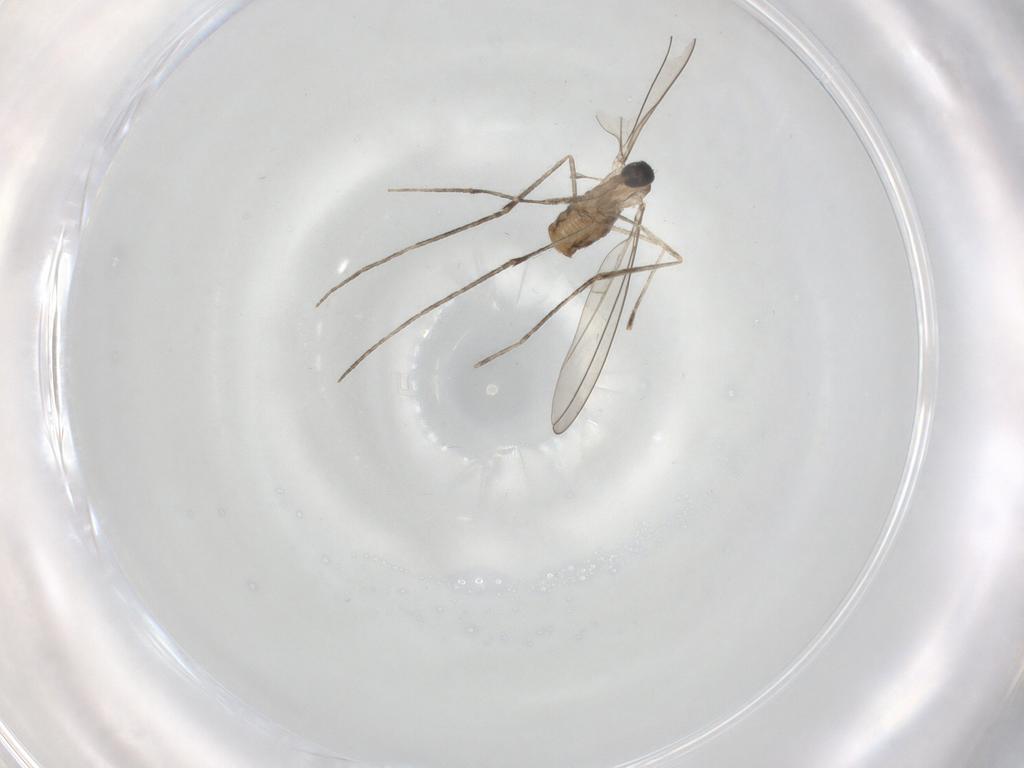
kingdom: Animalia
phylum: Arthropoda
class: Insecta
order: Diptera
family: Cecidomyiidae
